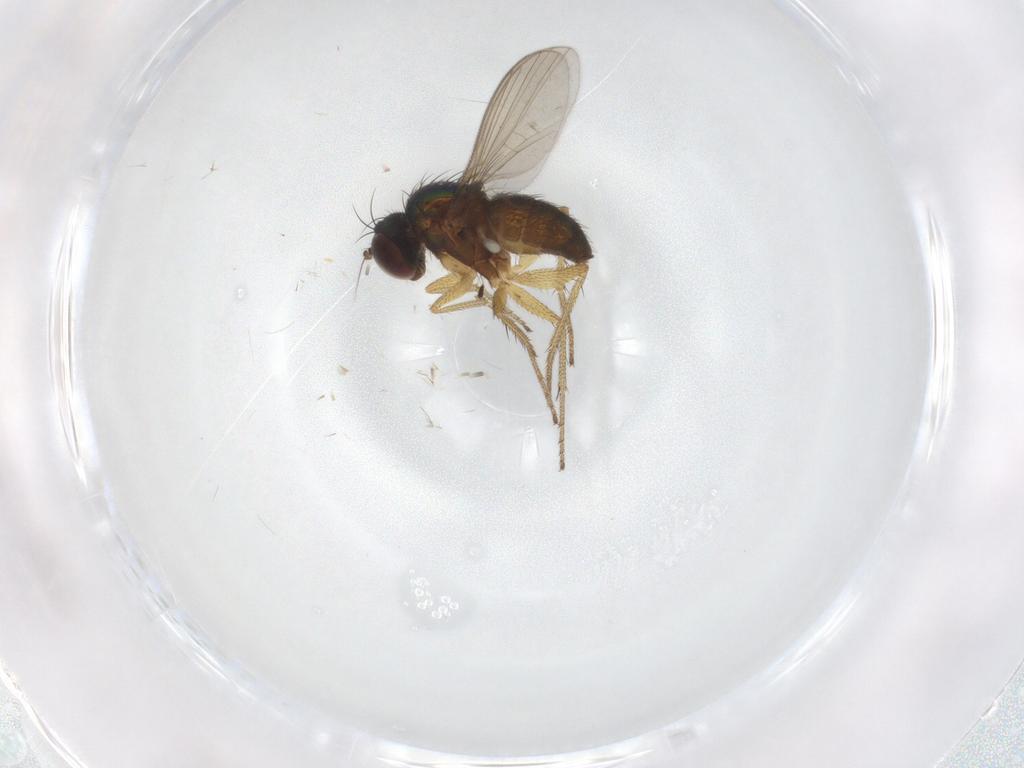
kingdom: Animalia
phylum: Arthropoda
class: Insecta
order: Diptera
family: Dolichopodidae
